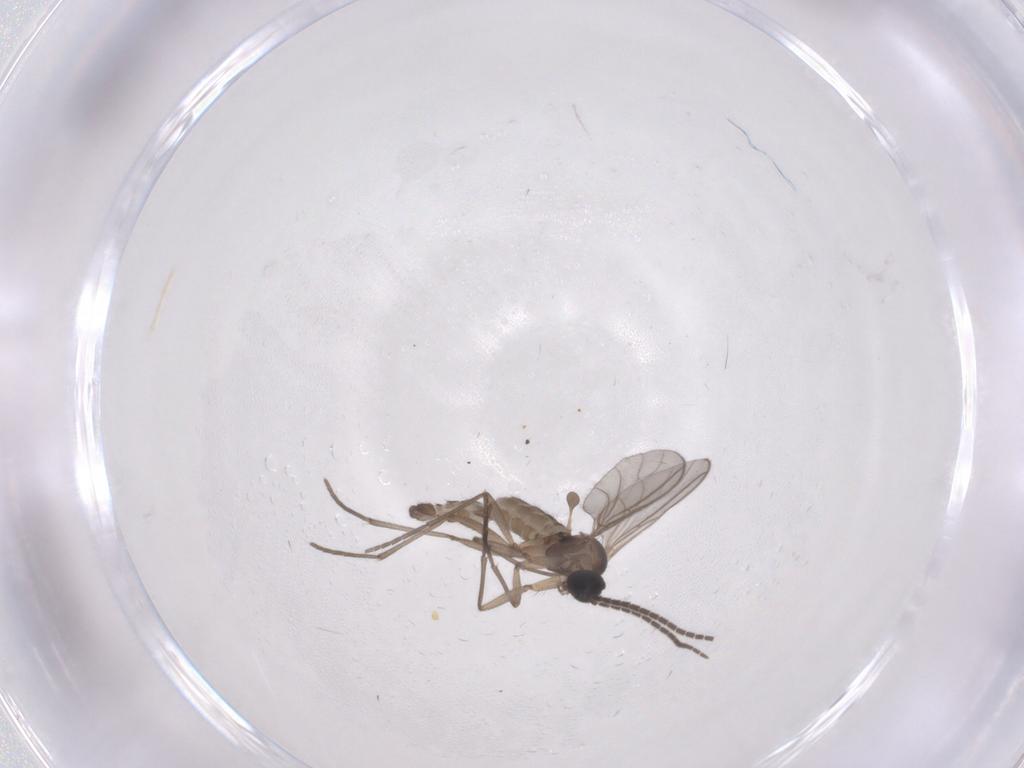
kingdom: Animalia
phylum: Arthropoda
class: Insecta
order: Diptera
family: Sciaridae
